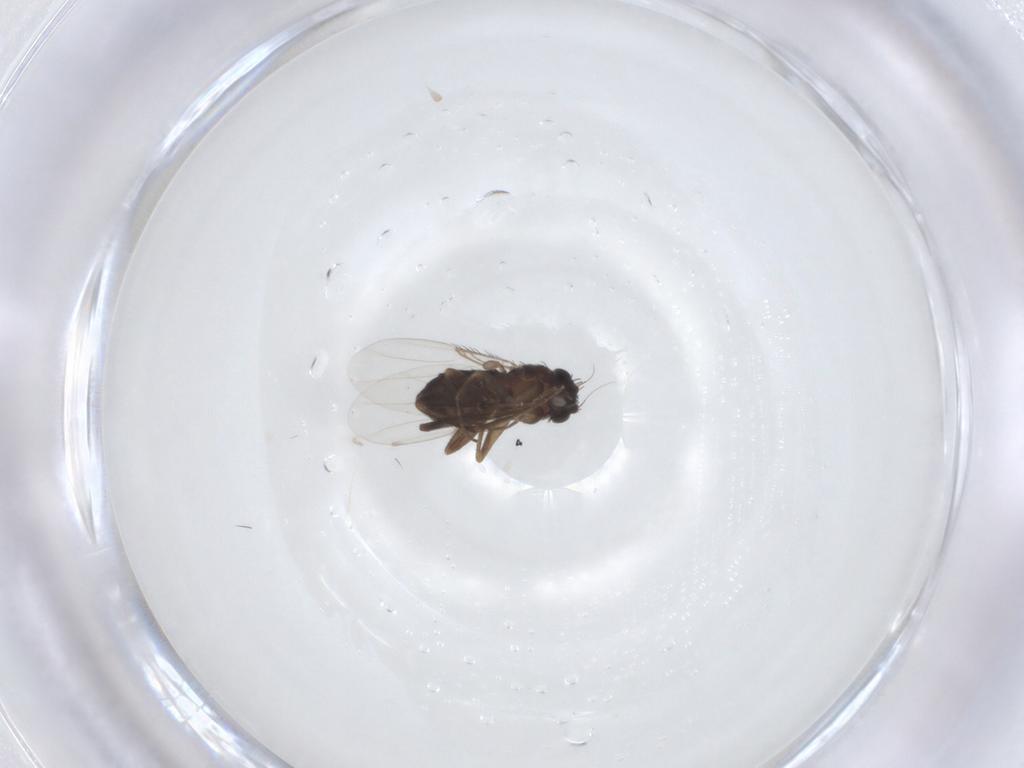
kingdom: Animalia
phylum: Arthropoda
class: Insecta
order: Diptera
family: Phoridae
